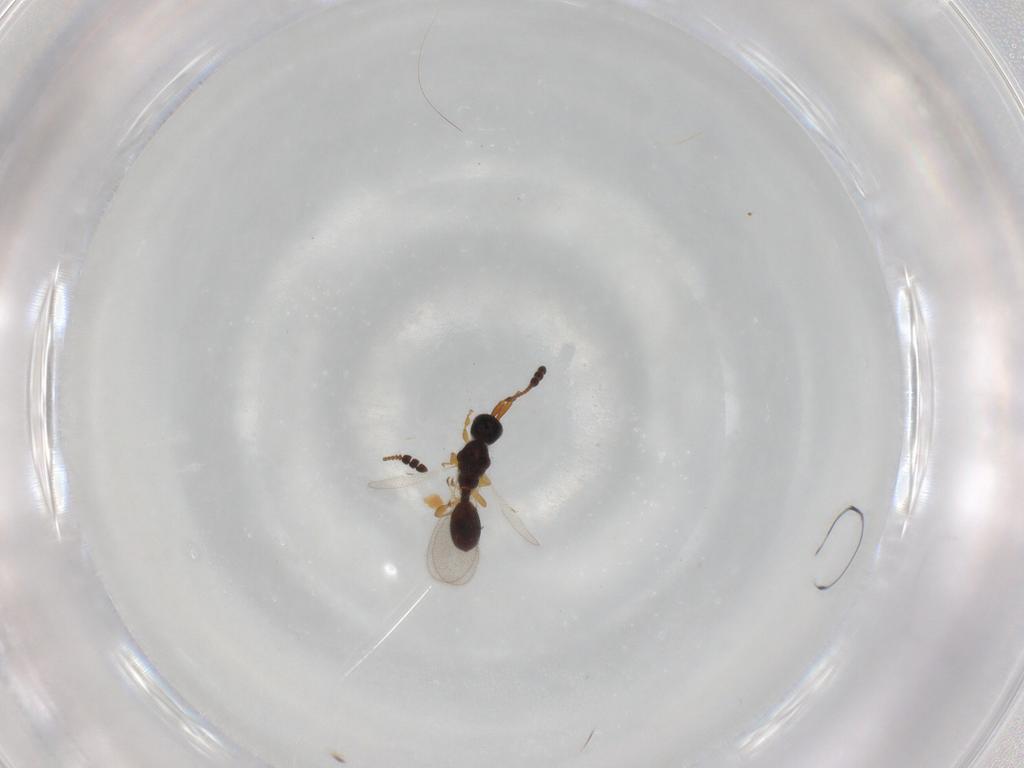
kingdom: Animalia
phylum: Arthropoda
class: Insecta
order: Hymenoptera
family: Diapriidae
